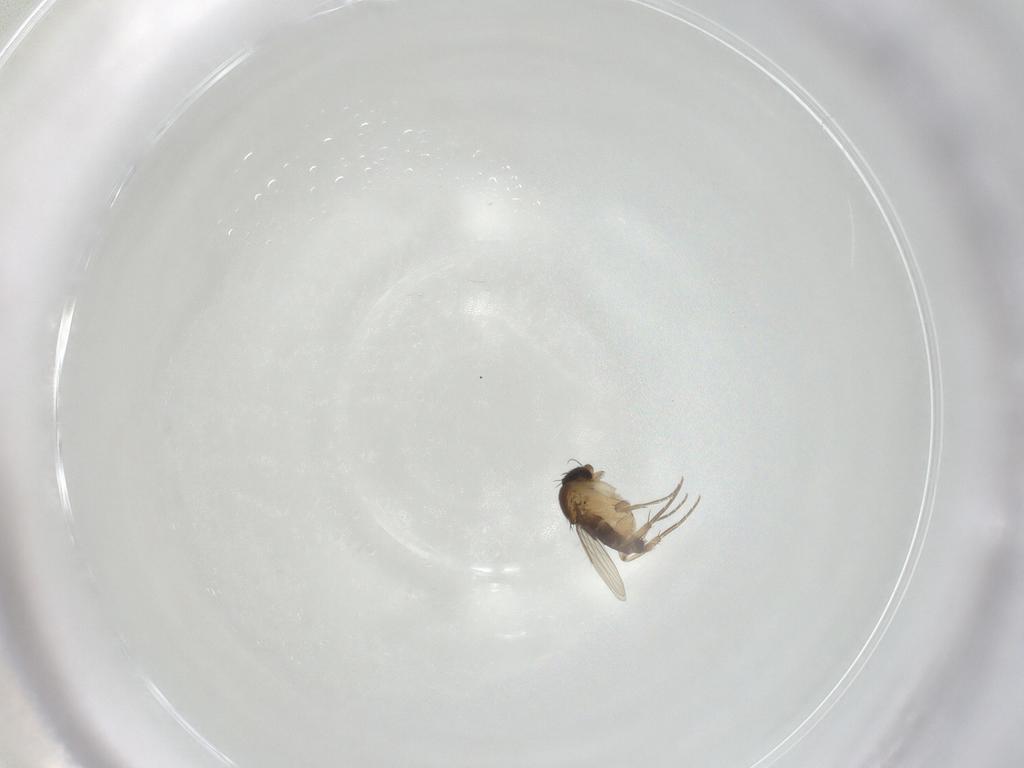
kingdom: Animalia
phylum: Arthropoda
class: Insecta
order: Diptera
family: Phoridae
